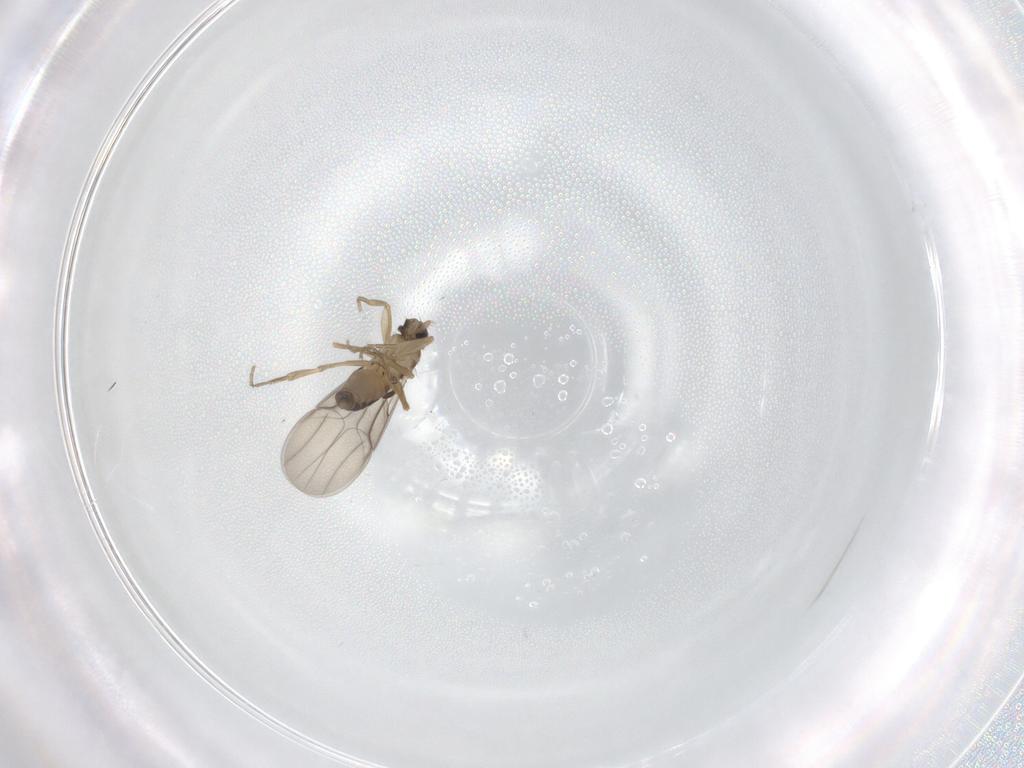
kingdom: Animalia
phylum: Arthropoda
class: Insecta
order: Diptera
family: Phoridae
